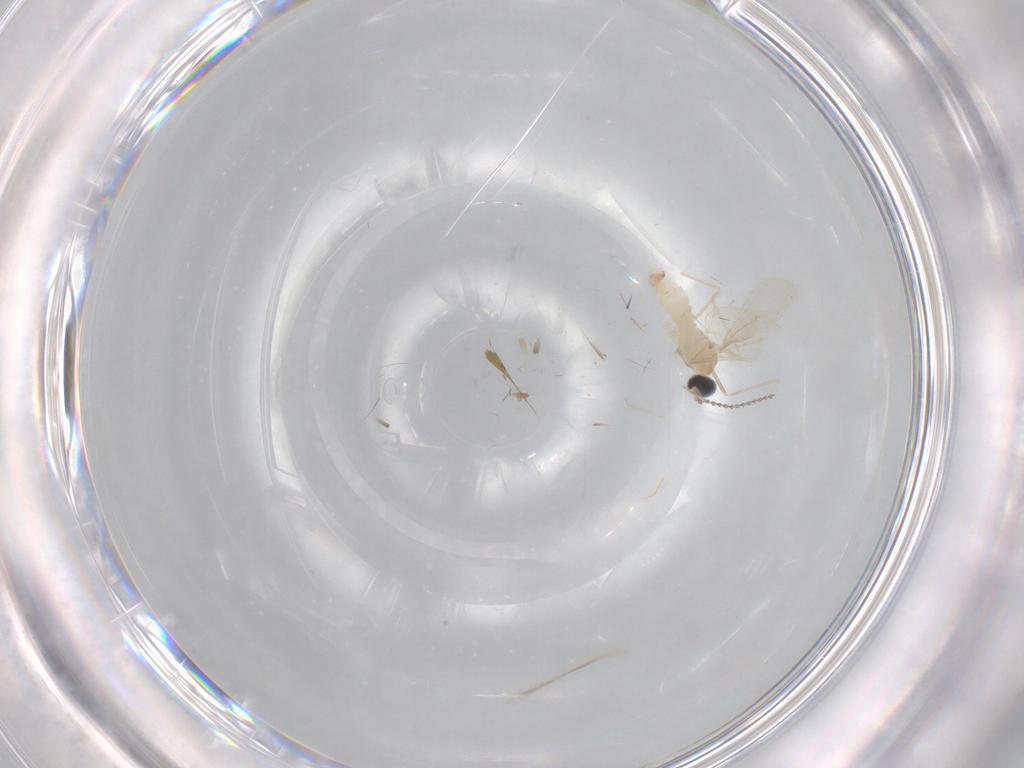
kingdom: Animalia
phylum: Arthropoda
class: Insecta
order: Diptera
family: Cecidomyiidae
